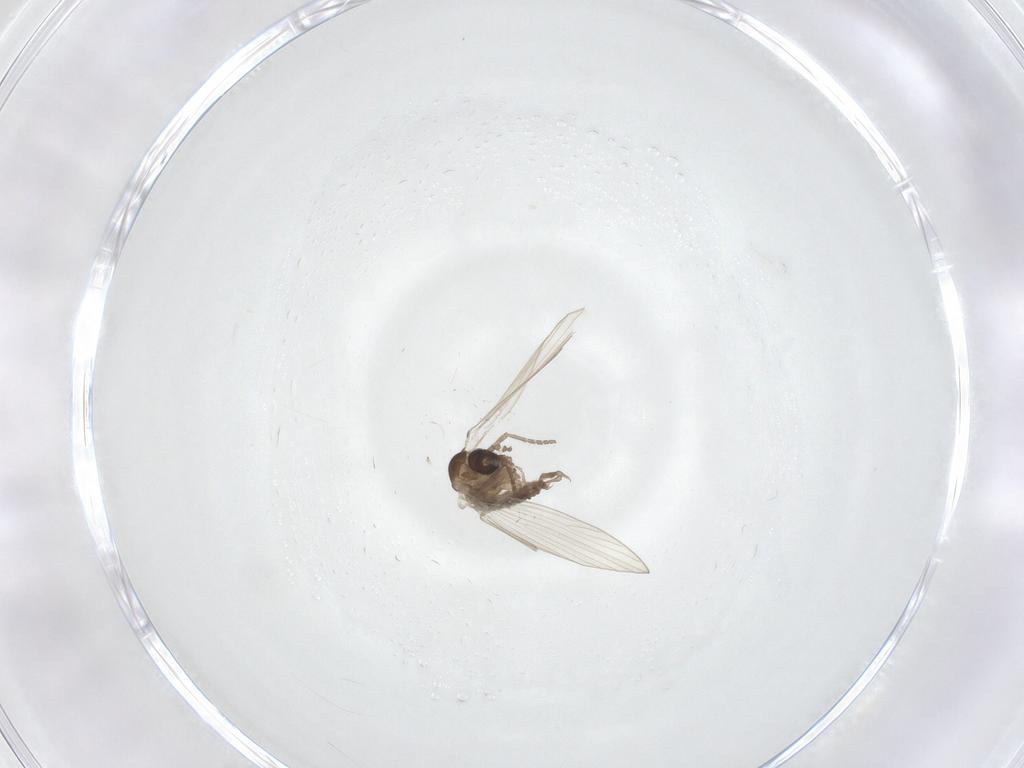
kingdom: Animalia
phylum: Arthropoda
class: Insecta
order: Diptera
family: Psychodidae
